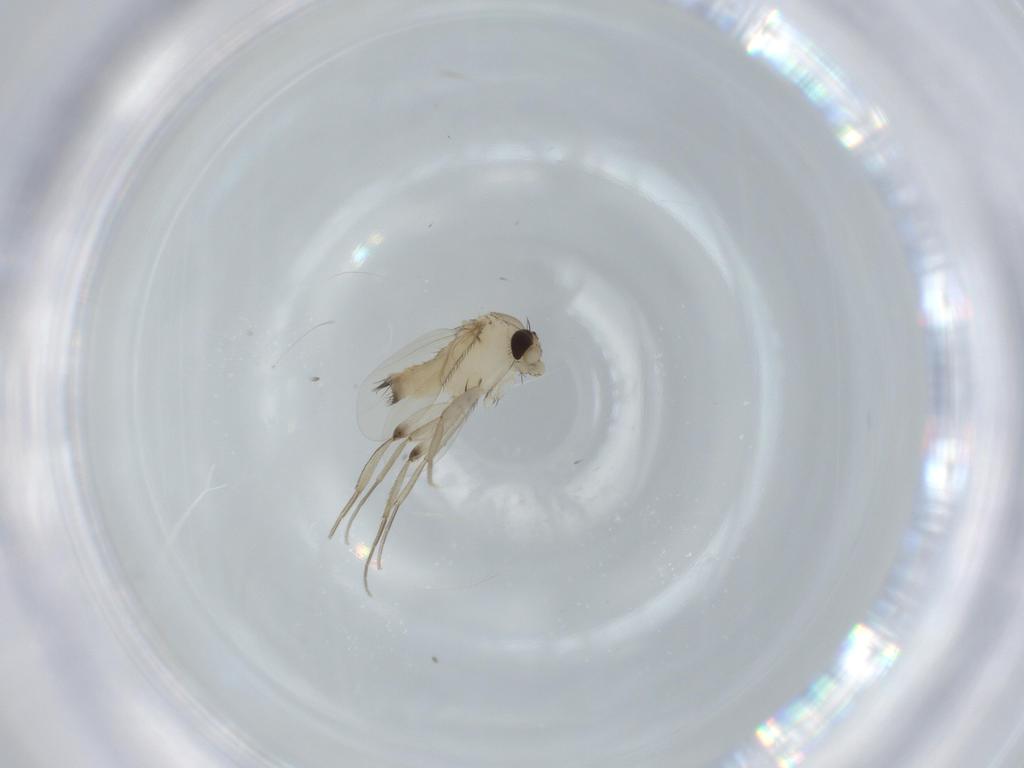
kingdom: Animalia
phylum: Arthropoda
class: Insecta
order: Diptera
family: Phoridae
